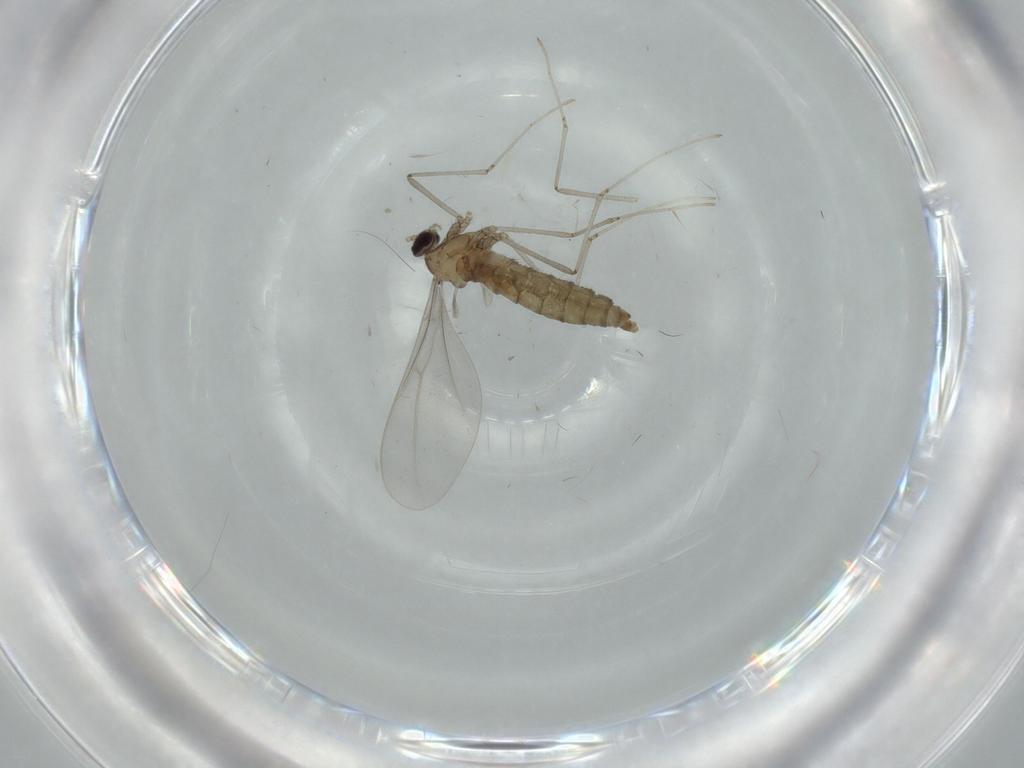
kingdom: Animalia
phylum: Arthropoda
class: Insecta
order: Diptera
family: Cecidomyiidae
